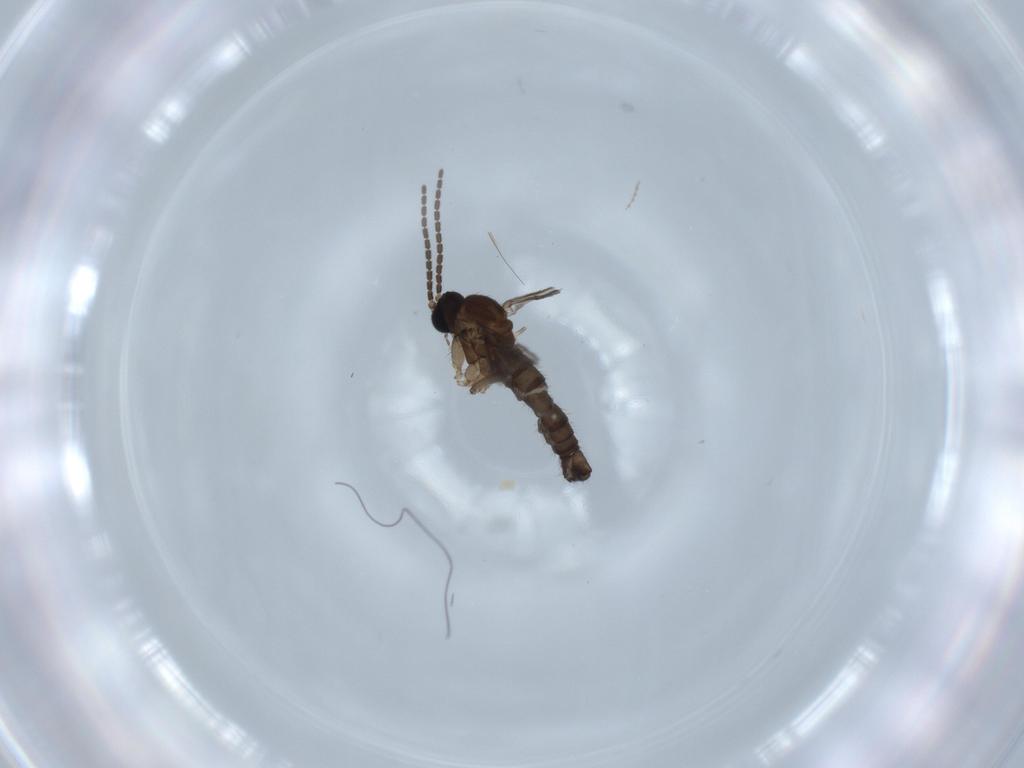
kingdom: Animalia
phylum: Arthropoda
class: Insecta
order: Diptera
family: Sciaridae
